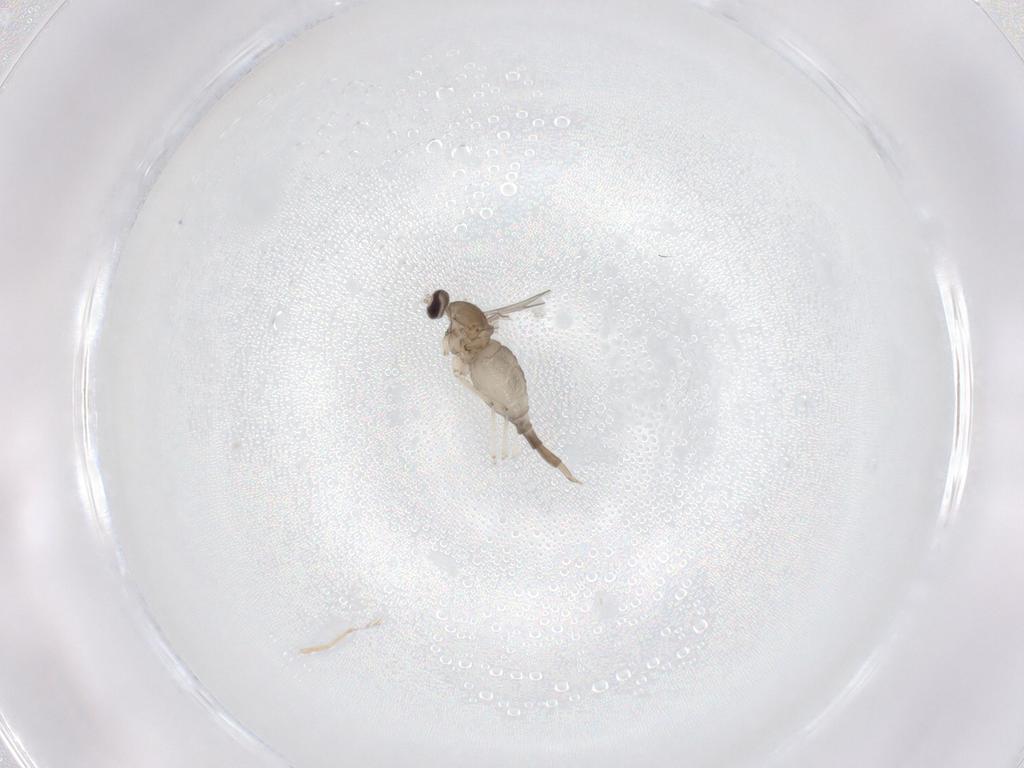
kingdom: Animalia
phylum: Arthropoda
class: Insecta
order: Diptera
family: Cecidomyiidae
